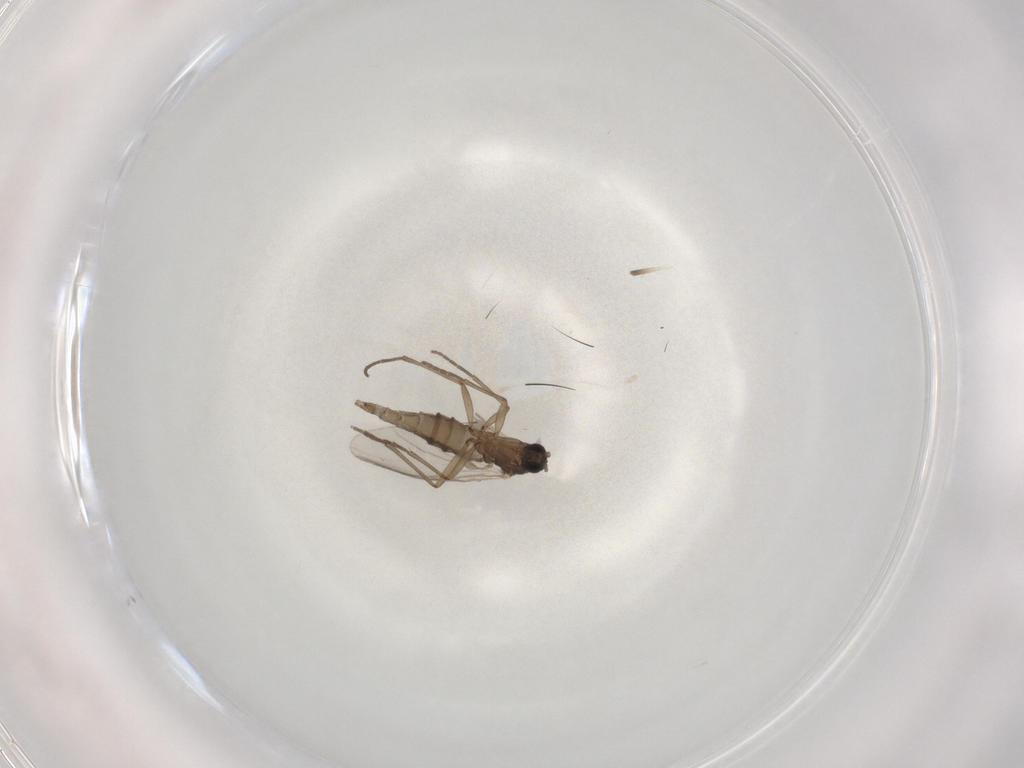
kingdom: Animalia
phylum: Arthropoda
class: Insecta
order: Diptera
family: Sciaridae
